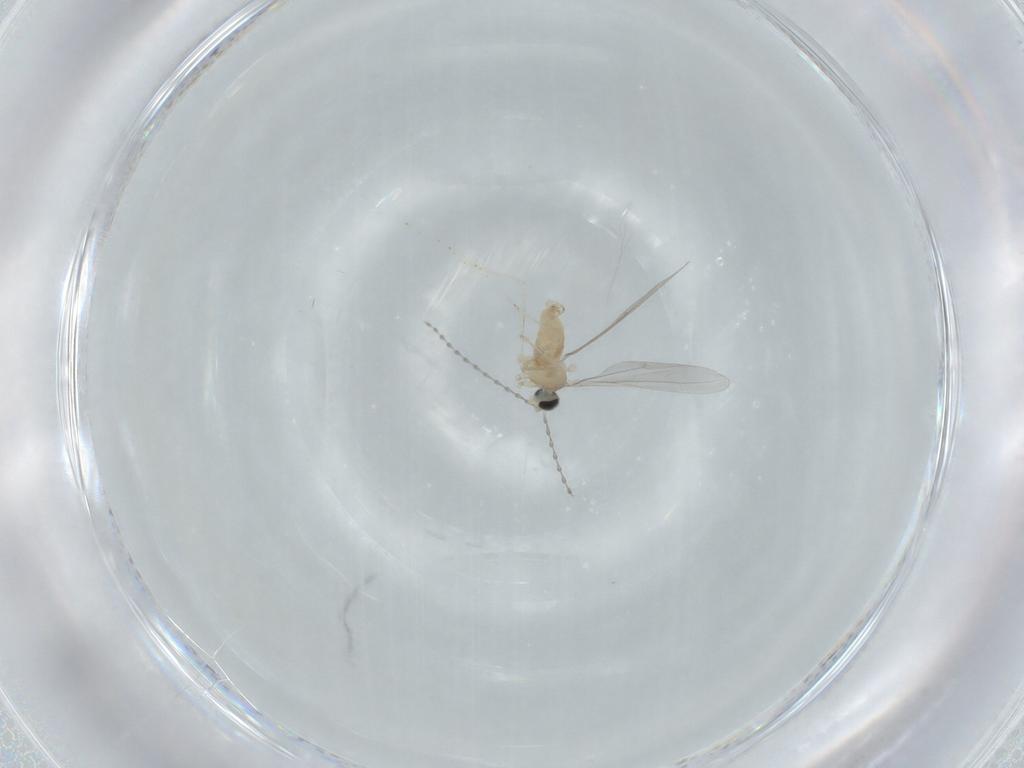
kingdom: Animalia
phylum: Arthropoda
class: Insecta
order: Diptera
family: Cecidomyiidae
